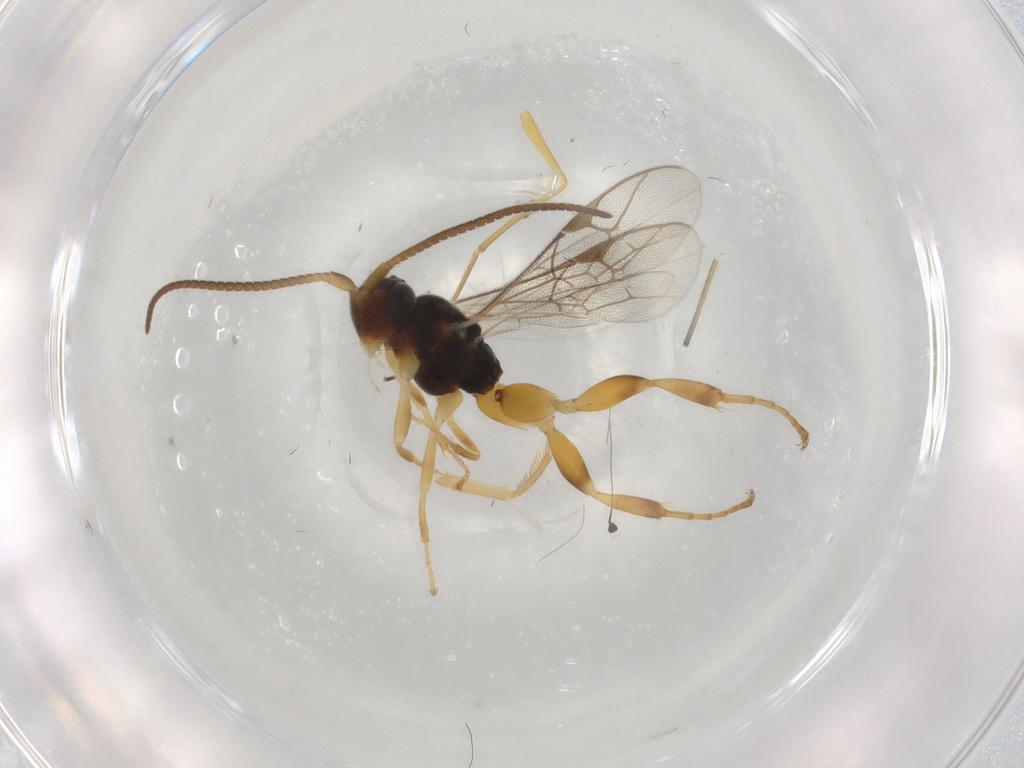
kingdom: Animalia
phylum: Arthropoda
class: Insecta
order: Hymenoptera
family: Ichneumonidae
